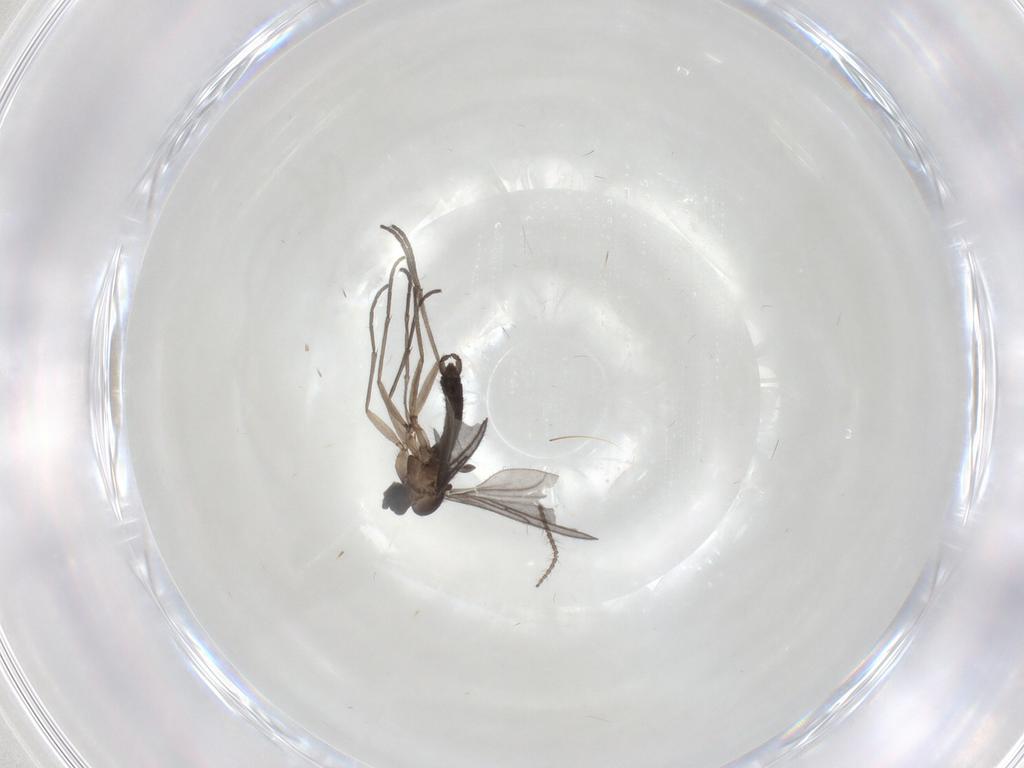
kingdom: Animalia
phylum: Arthropoda
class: Insecta
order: Diptera
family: Sciaridae
